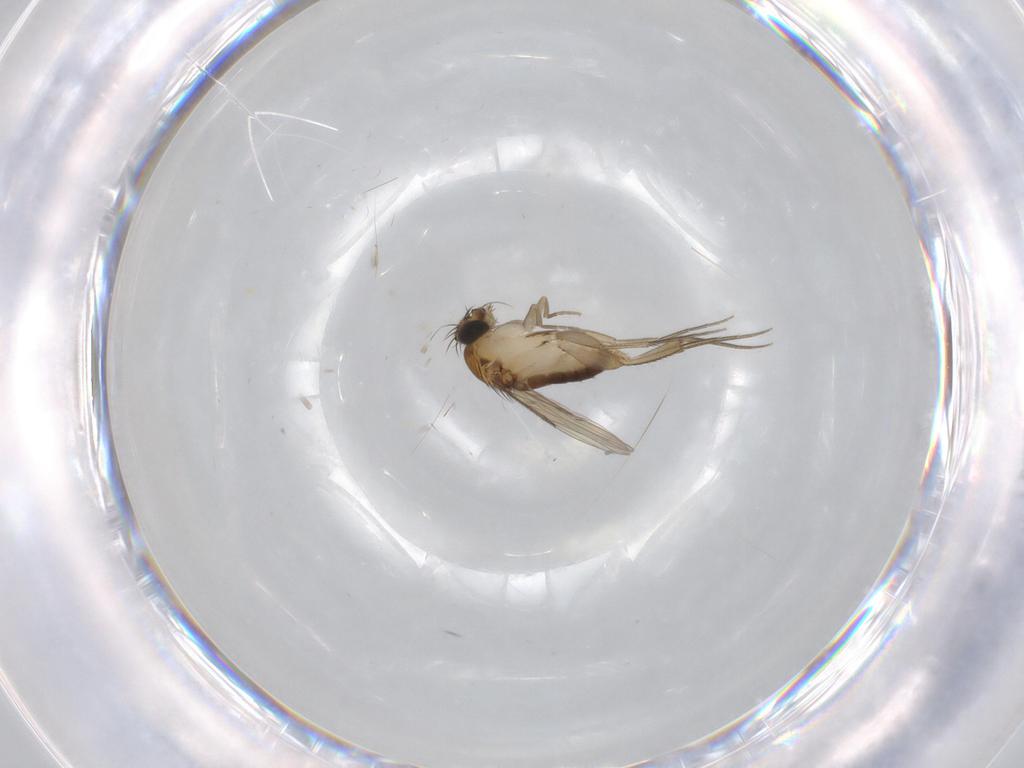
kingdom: Animalia
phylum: Arthropoda
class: Insecta
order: Diptera
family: Phoridae
